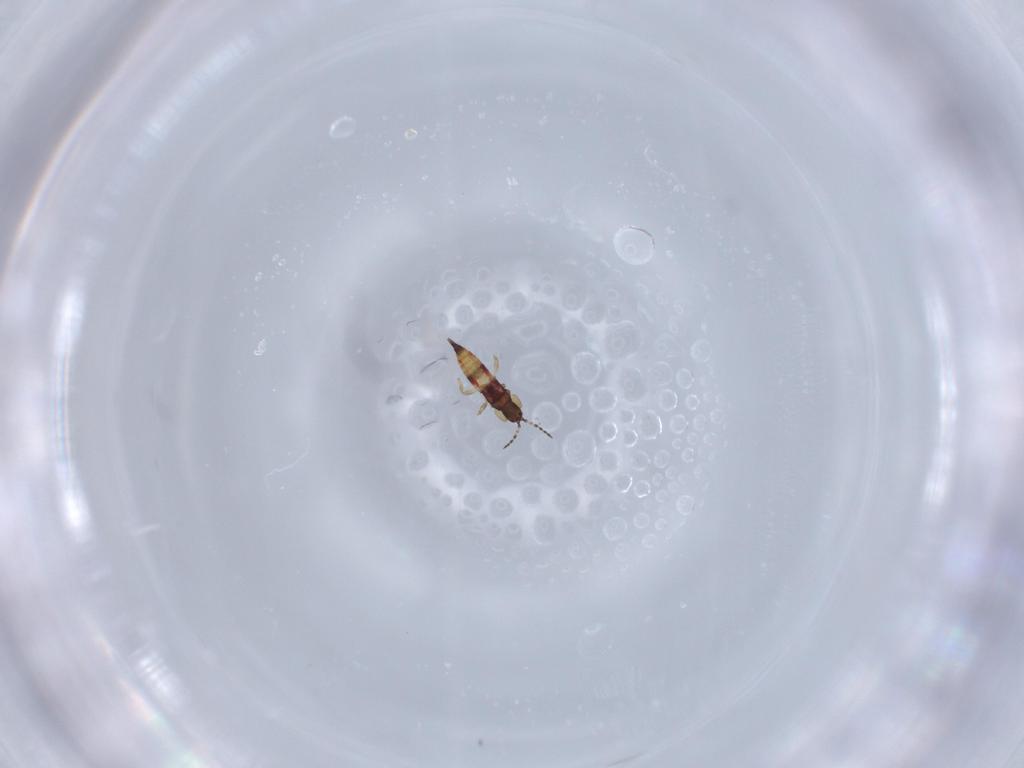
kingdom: Animalia
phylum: Arthropoda
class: Insecta
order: Thysanoptera
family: Phlaeothripidae
